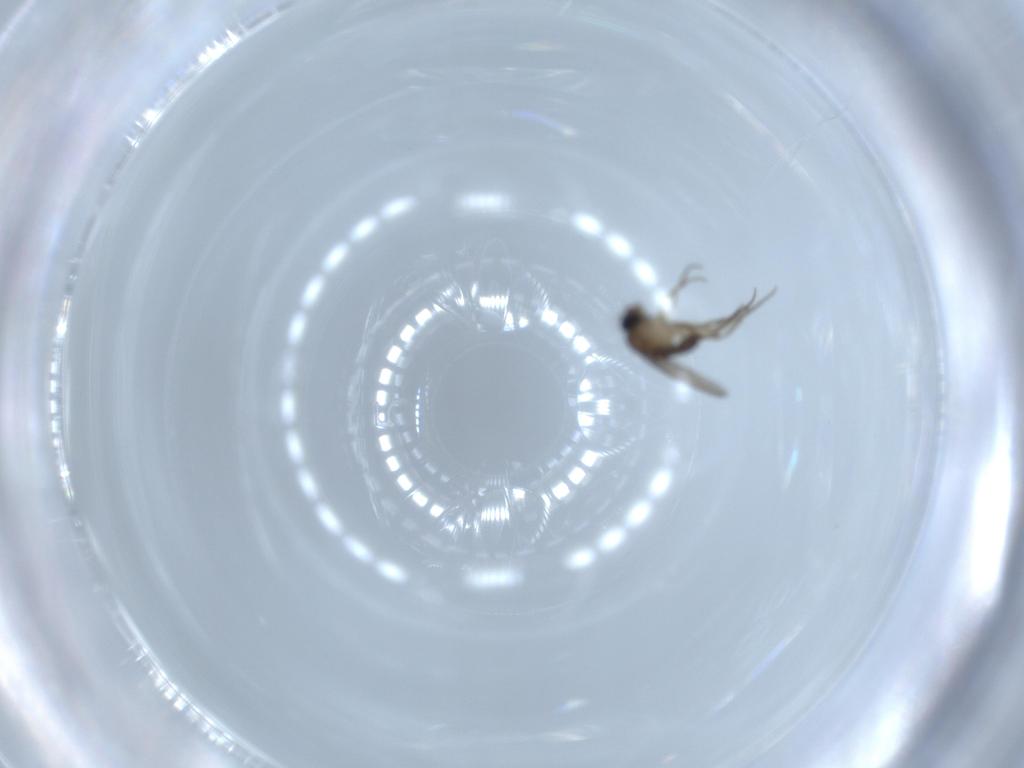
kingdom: Animalia
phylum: Arthropoda
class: Insecta
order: Diptera
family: Phoridae
